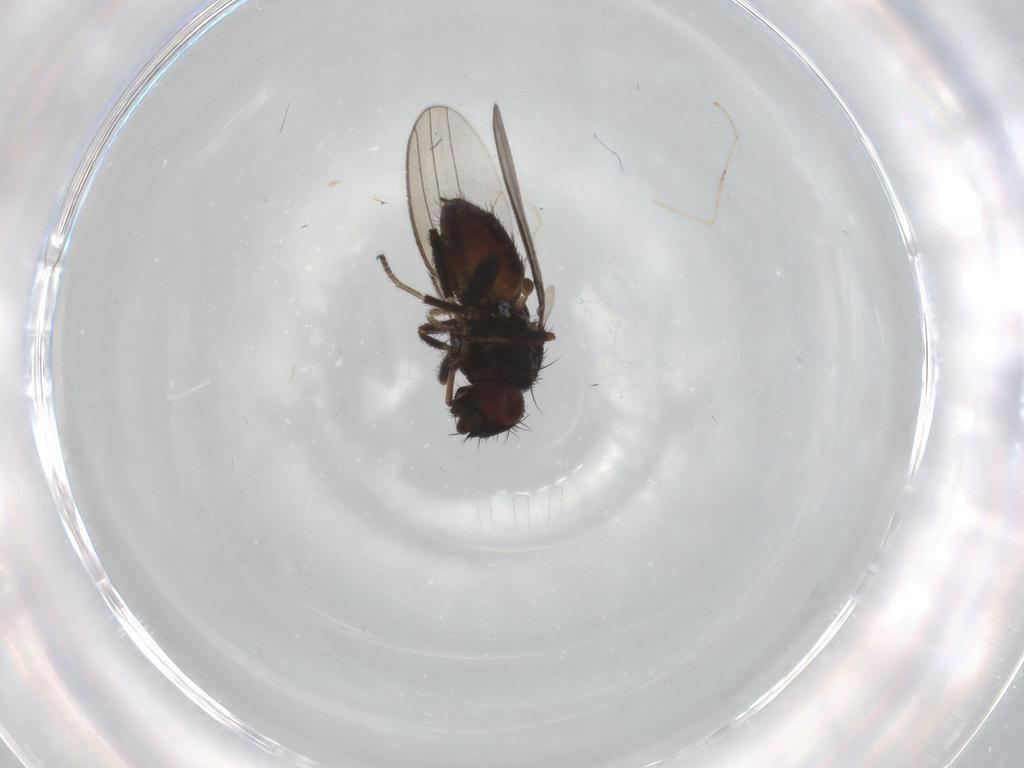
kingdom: Animalia
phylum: Arthropoda
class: Insecta
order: Diptera
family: Milichiidae
